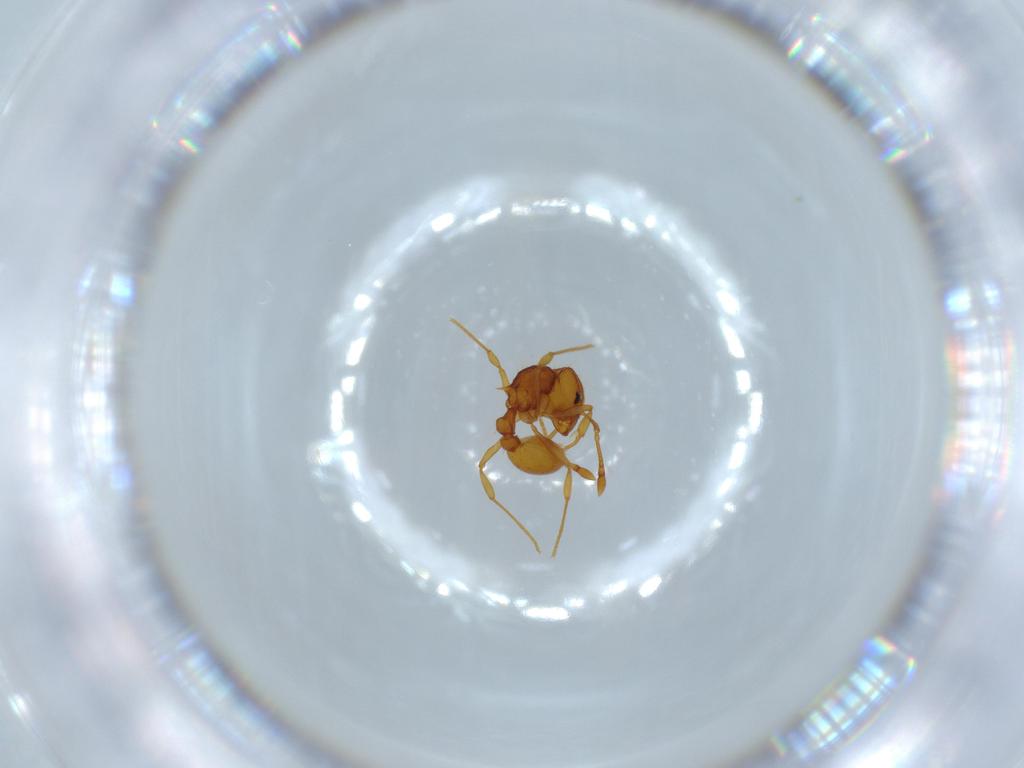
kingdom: Animalia
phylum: Arthropoda
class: Insecta
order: Hymenoptera
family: Formicidae
